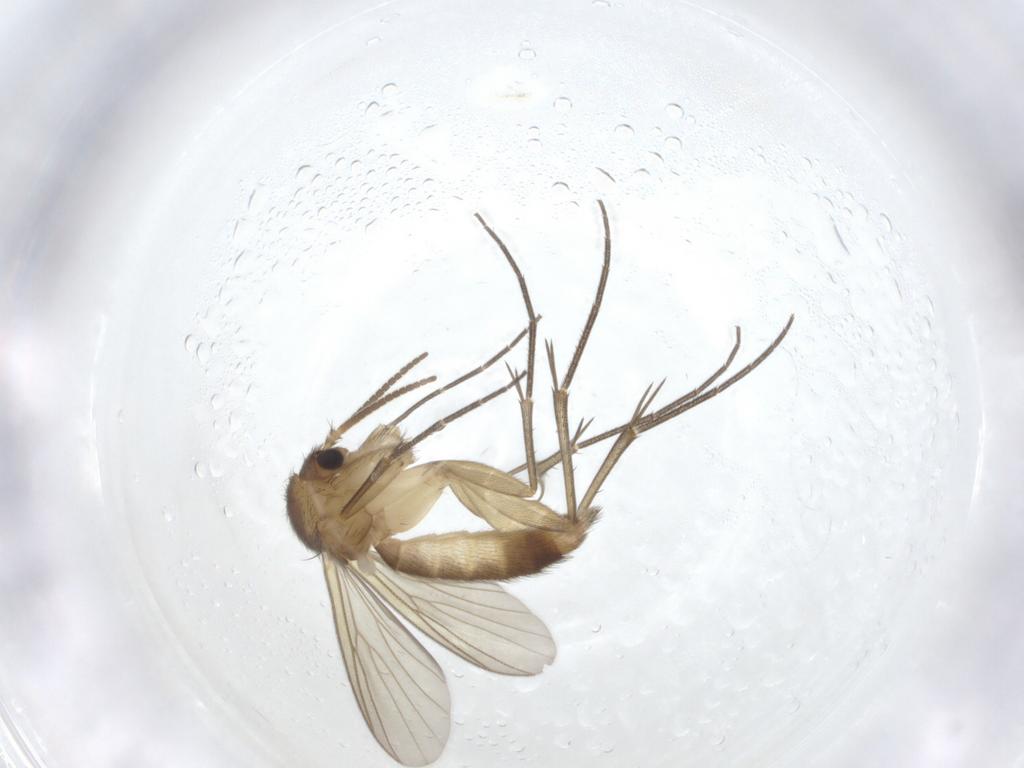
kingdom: Animalia
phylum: Arthropoda
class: Insecta
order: Diptera
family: Mycetophilidae
